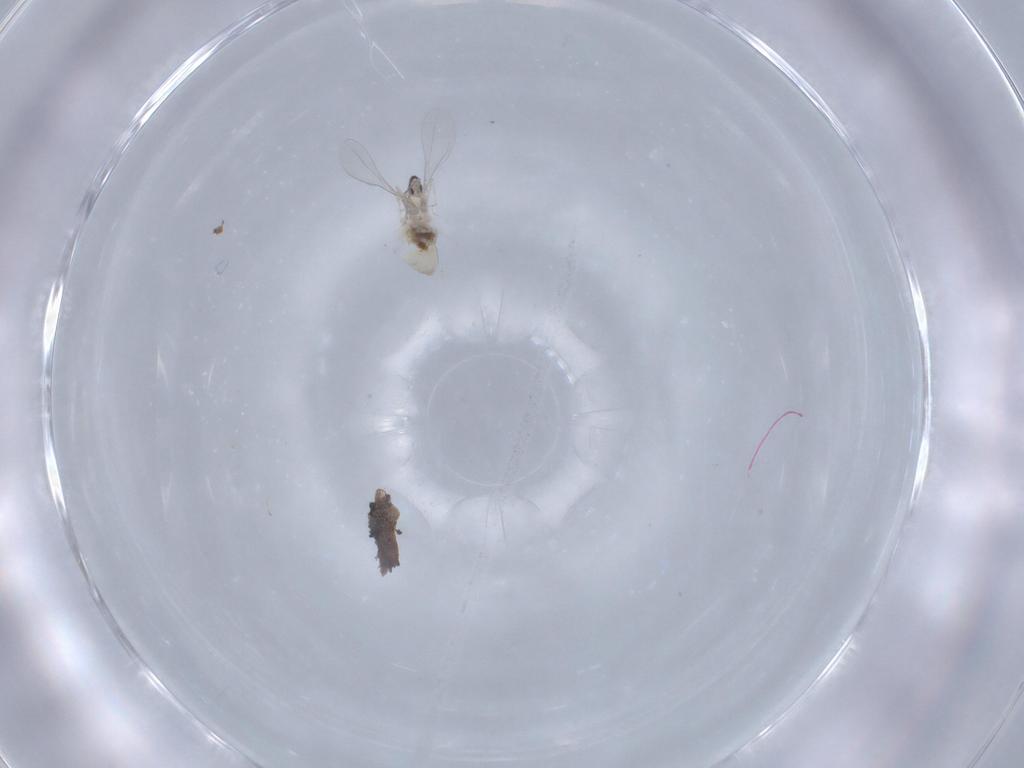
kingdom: Animalia
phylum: Arthropoda
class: Insecta
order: Diptera
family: Cecidomyiidae
